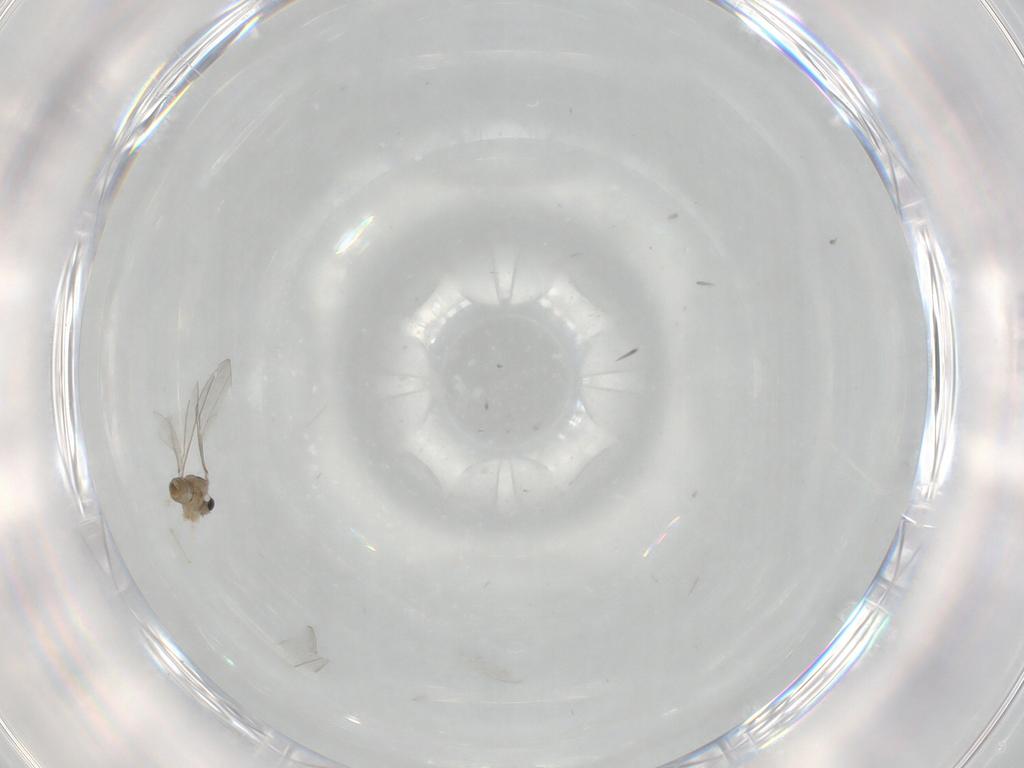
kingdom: Animalia
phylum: Arthropoda
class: Insecta
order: Diptera
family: Cecidomyiidae
